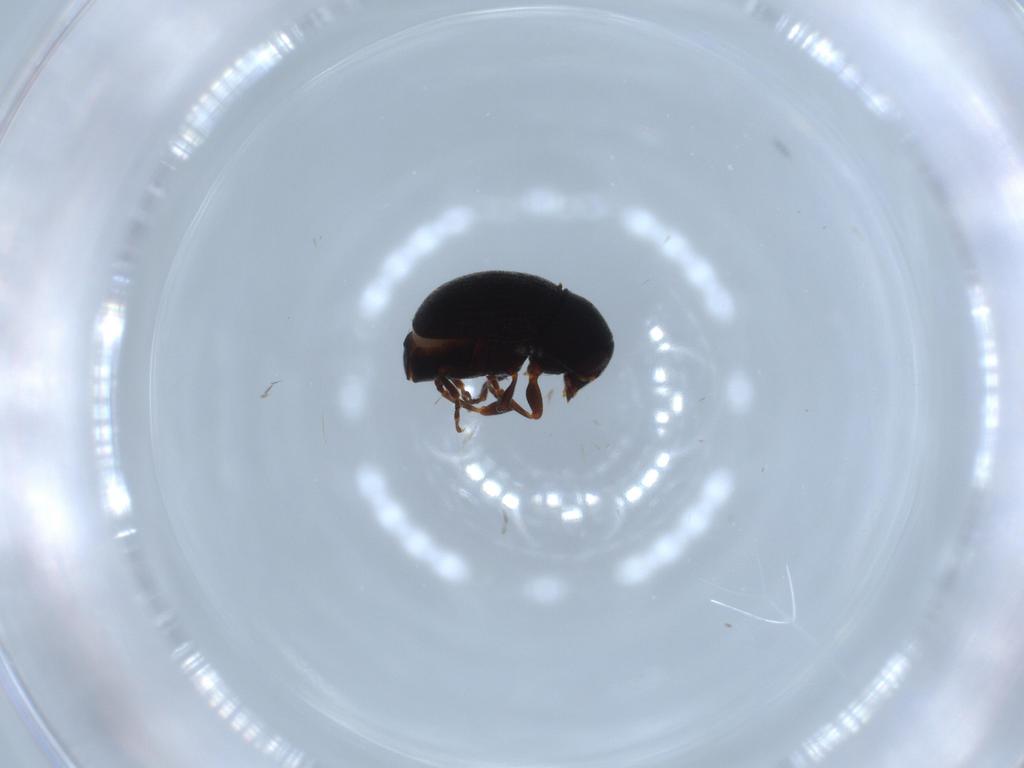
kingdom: Animalia
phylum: Arthropoda
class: Insecta
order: Coleoptera
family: Anthribidae
